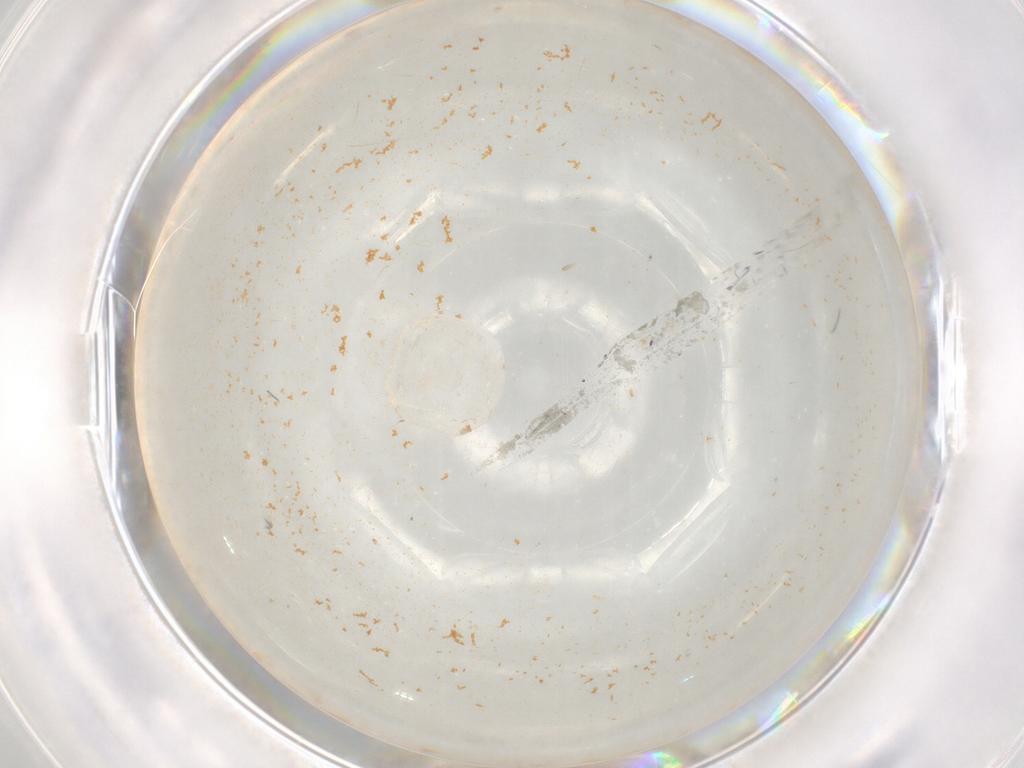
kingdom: Animalia
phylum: Arthropoda
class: Insecta
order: Diptera
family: Cecidomyiidae
